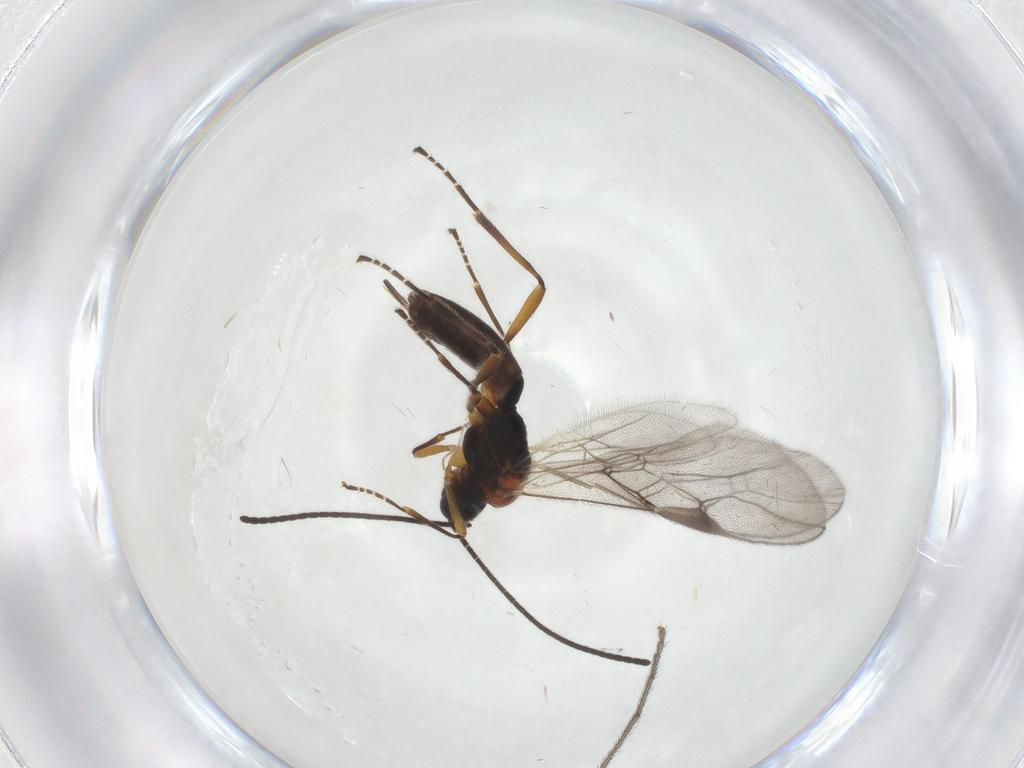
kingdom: Animalia
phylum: Arthropoda
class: Insecta
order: Hymenoptera
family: Braconidae
